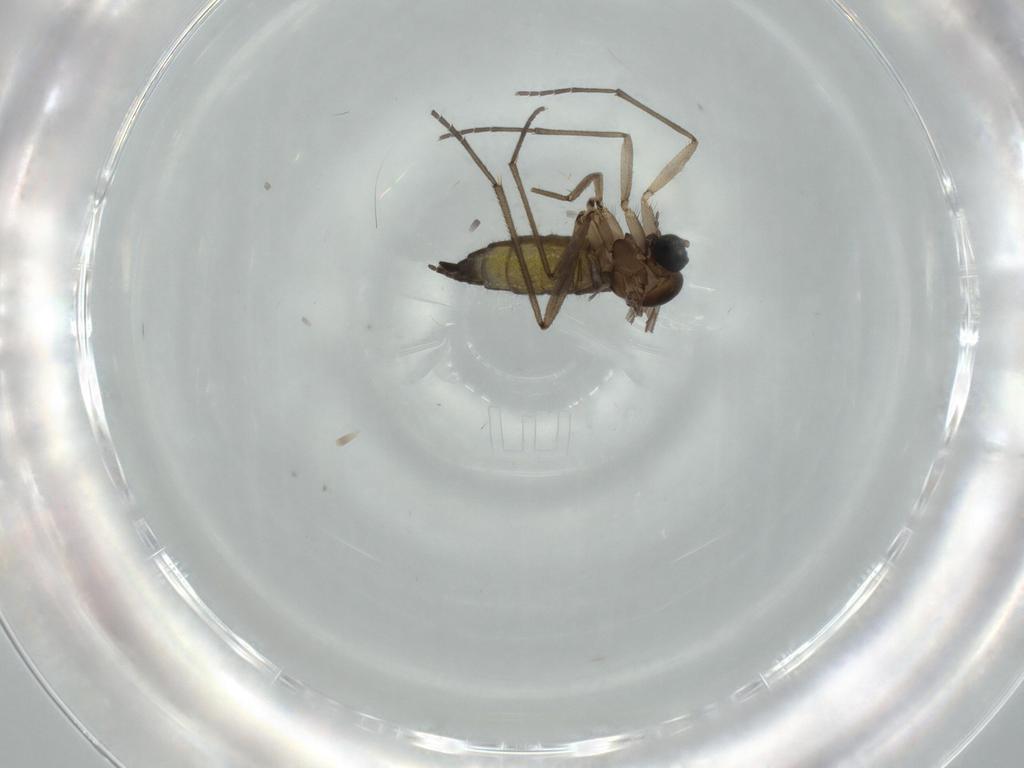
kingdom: Animalia
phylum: Arthropoda
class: Insecta
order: Diptera
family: Sciaridae
